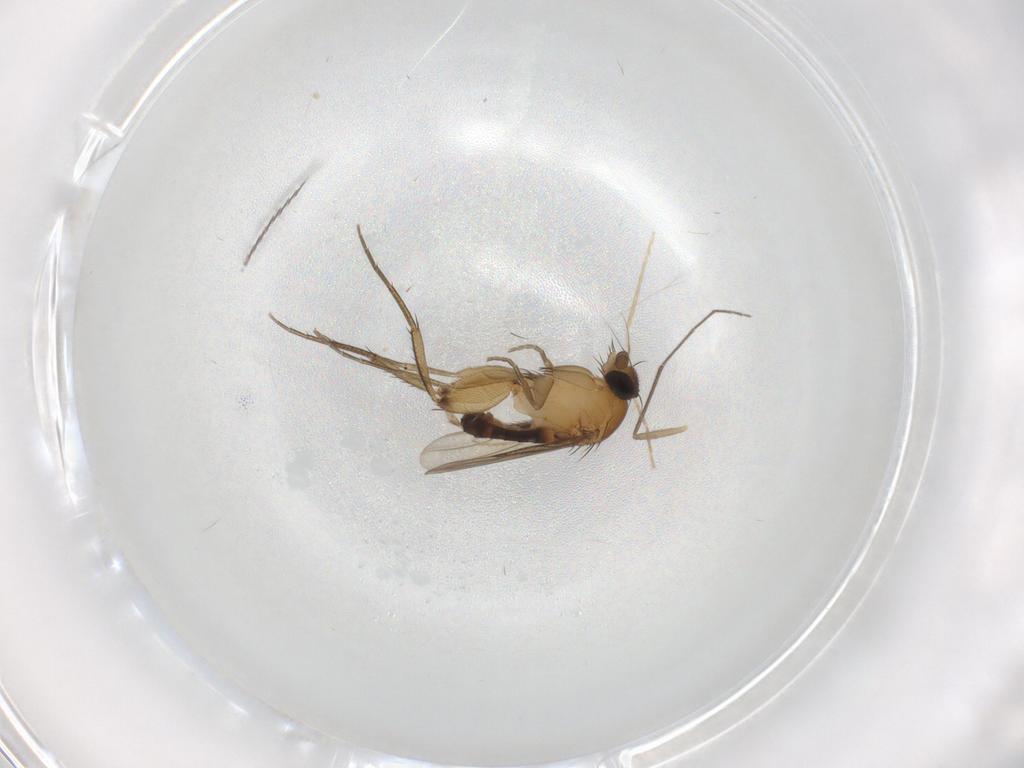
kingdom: Animalia
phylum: Arthropoda
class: Insecta
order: Diptera
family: Phoridae
